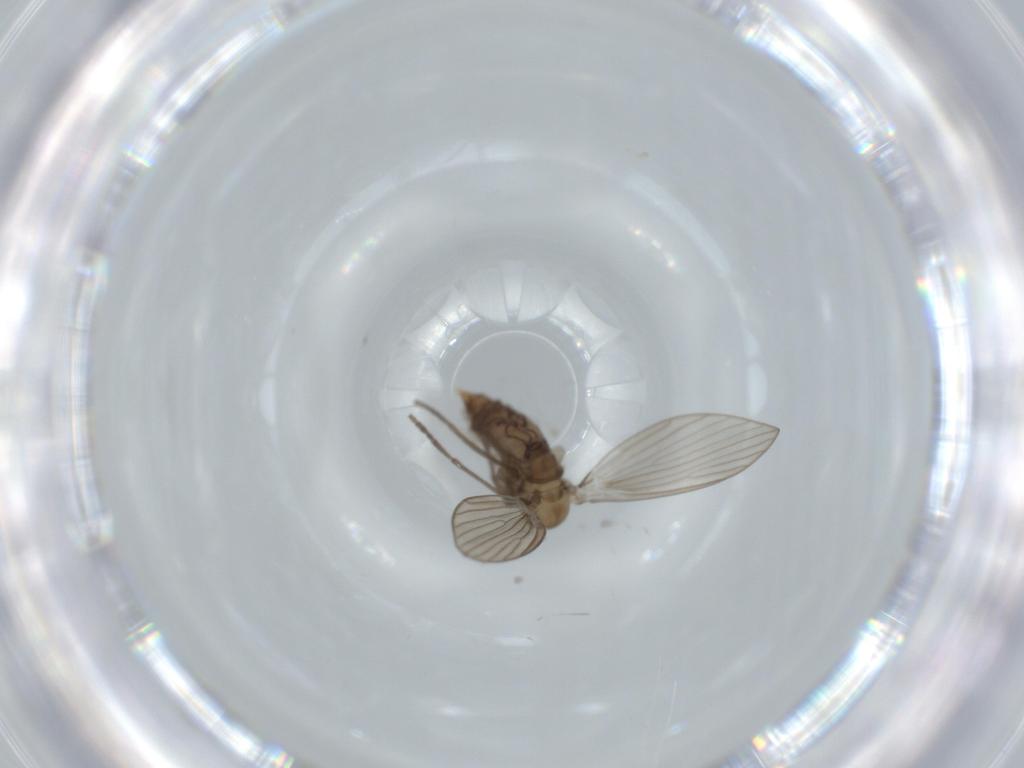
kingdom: Animalia
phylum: Arthropoda
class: Insecta
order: Diptera
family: Psychodidae
